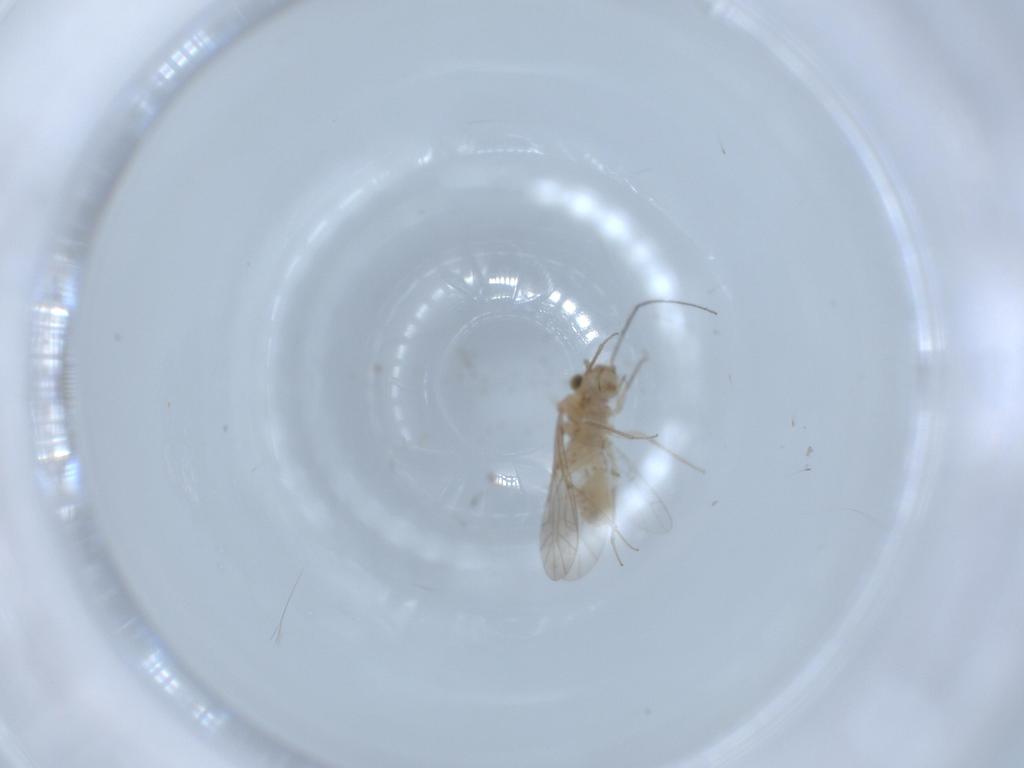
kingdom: Animalia
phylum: Arthropoda
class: Insecta
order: Psocodea
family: Lachesillidae
